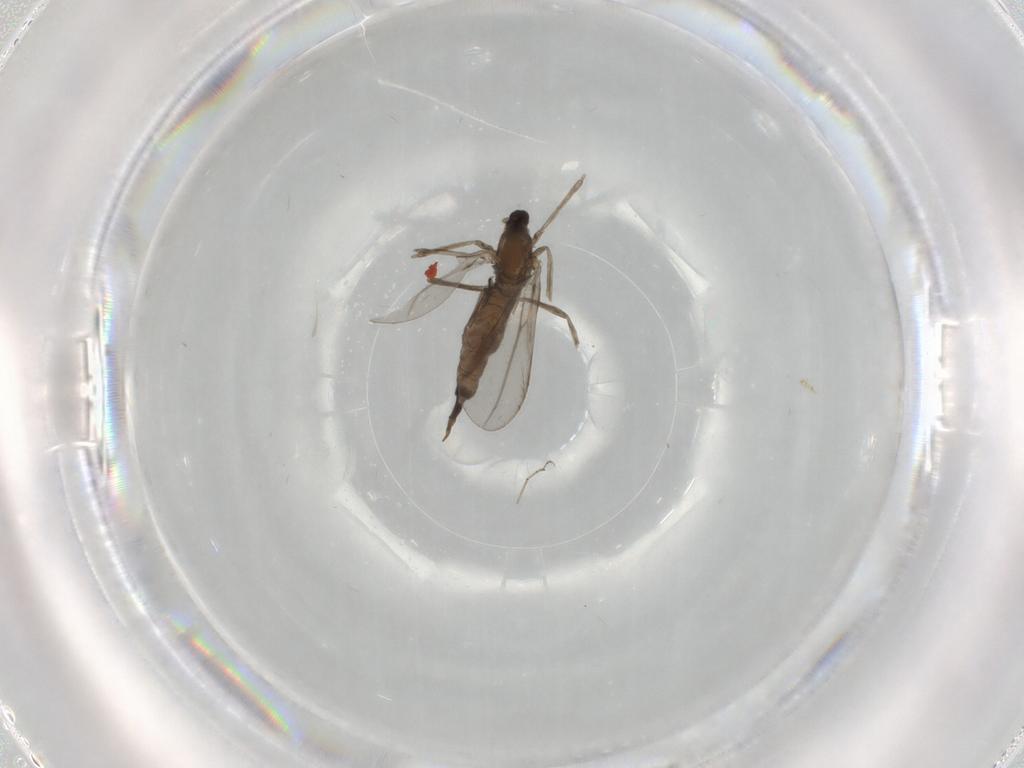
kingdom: Animalia
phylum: Arthropoda
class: Insecta
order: Diptera
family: Cecidomyiidae
